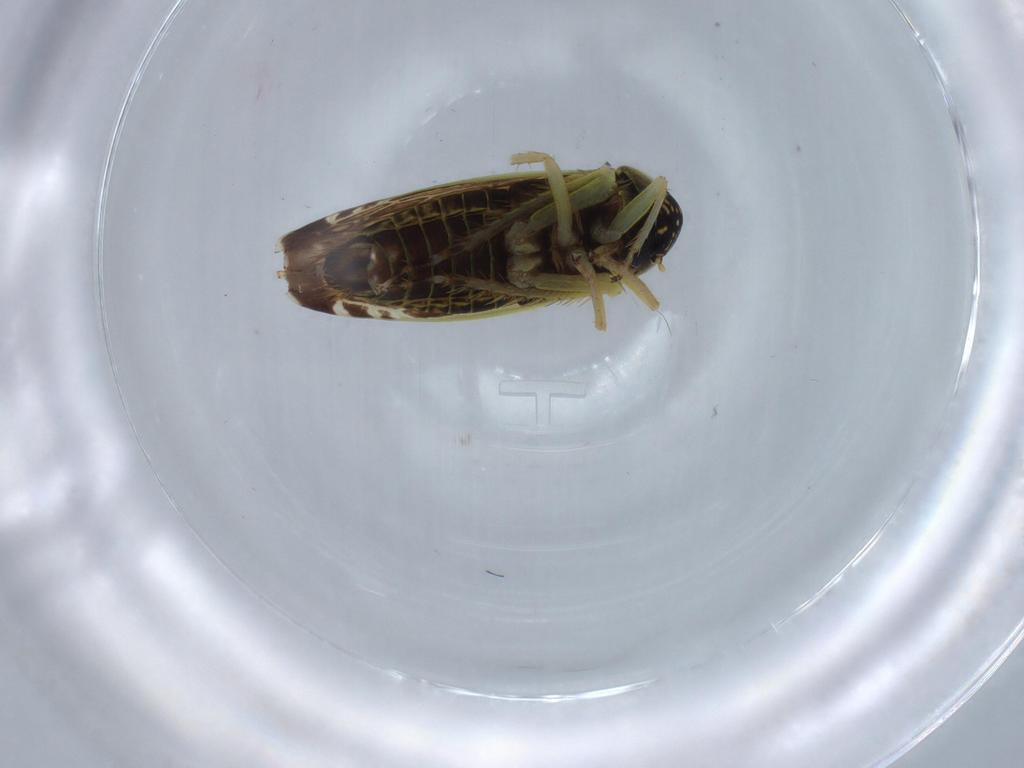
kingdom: Animalia
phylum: Arthropoda
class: Insecta
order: Hemiptera
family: Cicadellidae
